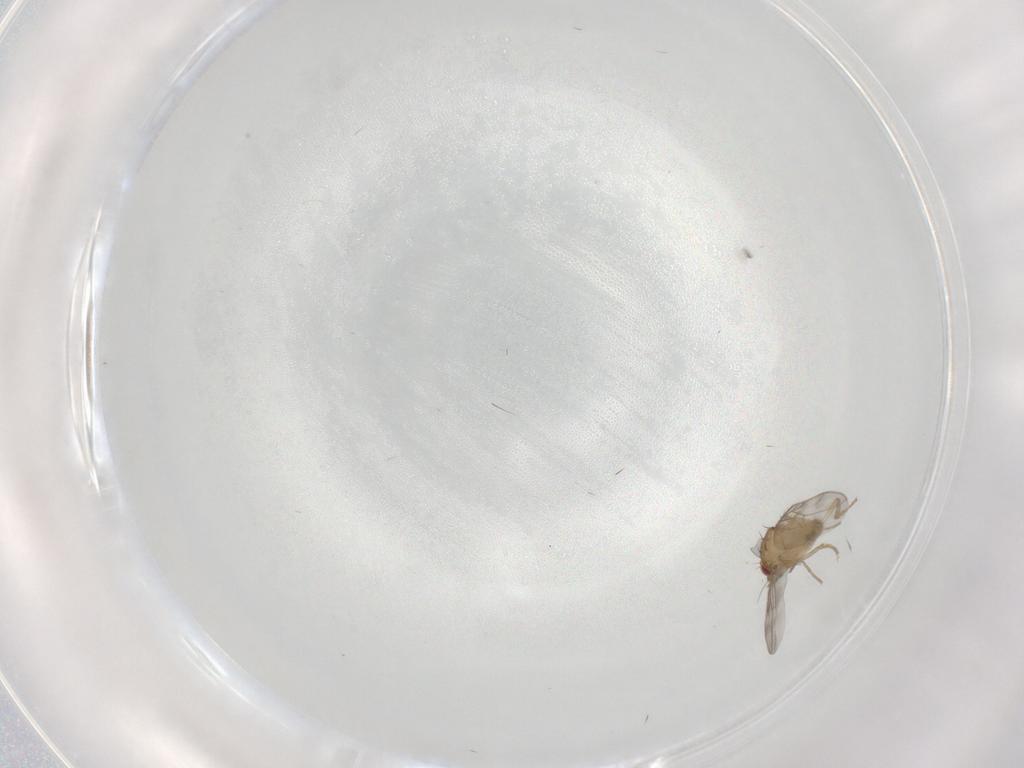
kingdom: Animalia
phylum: Arthropoda
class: Insecta
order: Diptera
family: Sphaeroceridae
